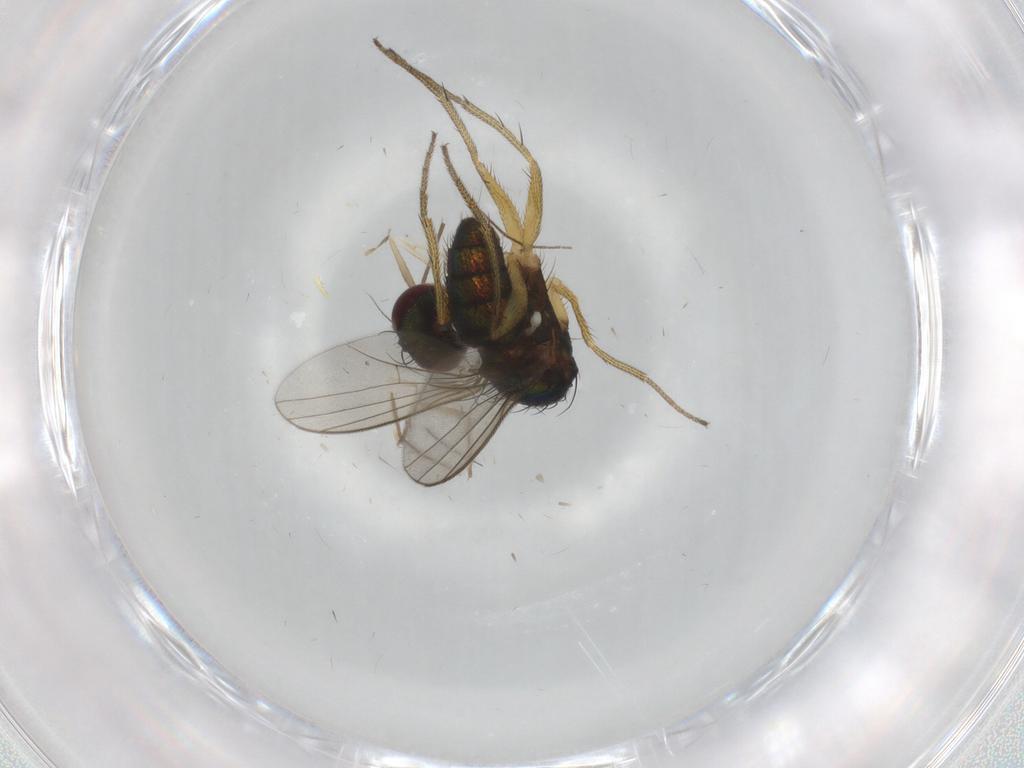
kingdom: Animalia
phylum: Arthropoda
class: Insecta
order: Diptera
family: Sciaridae
